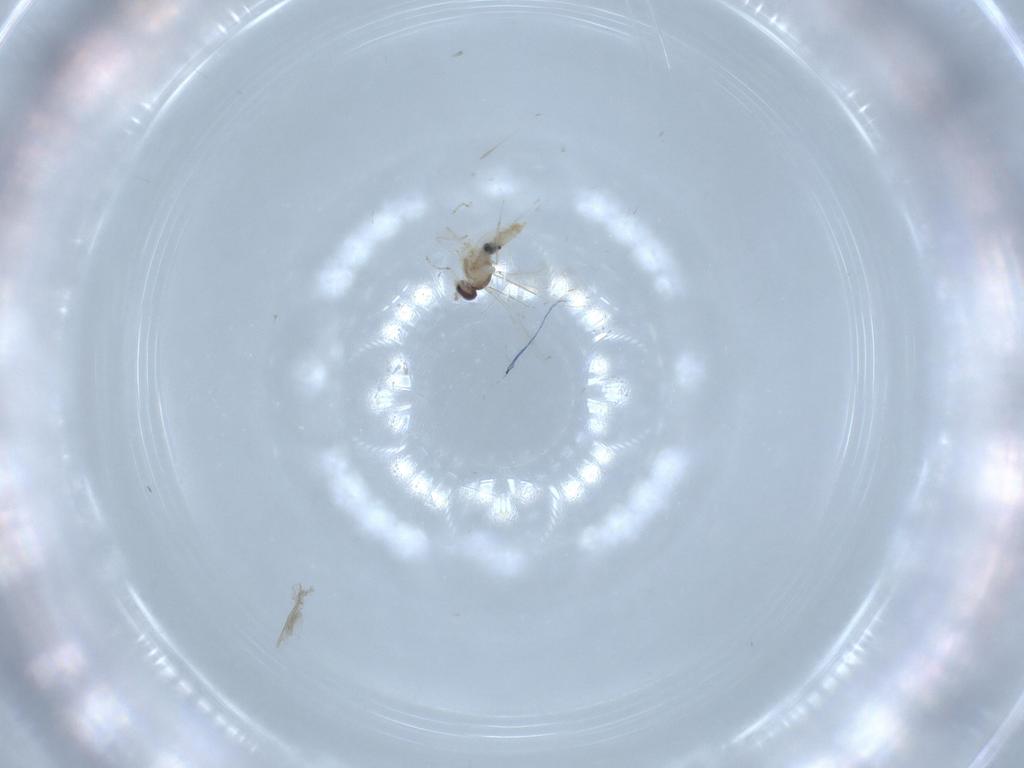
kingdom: Animalia
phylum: Arthropoda
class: Insecta
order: Diptera
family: Cecidomyiidae
